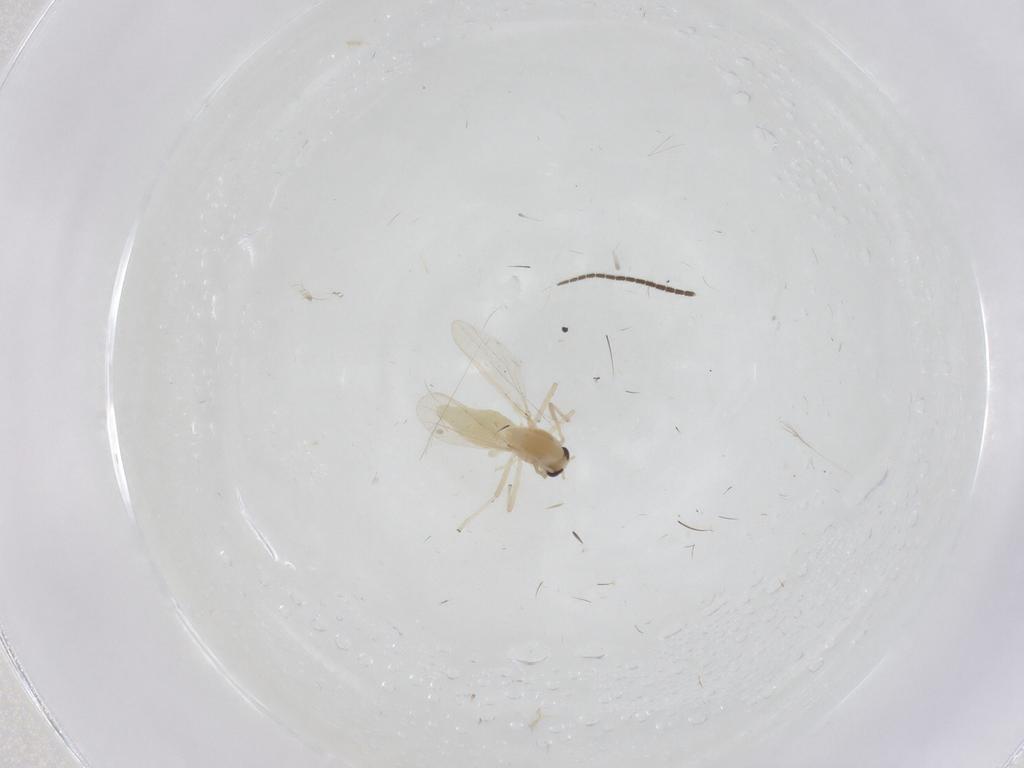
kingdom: Animalia
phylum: Arthropoda
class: Insecta
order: Diptera
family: Chironomidae
